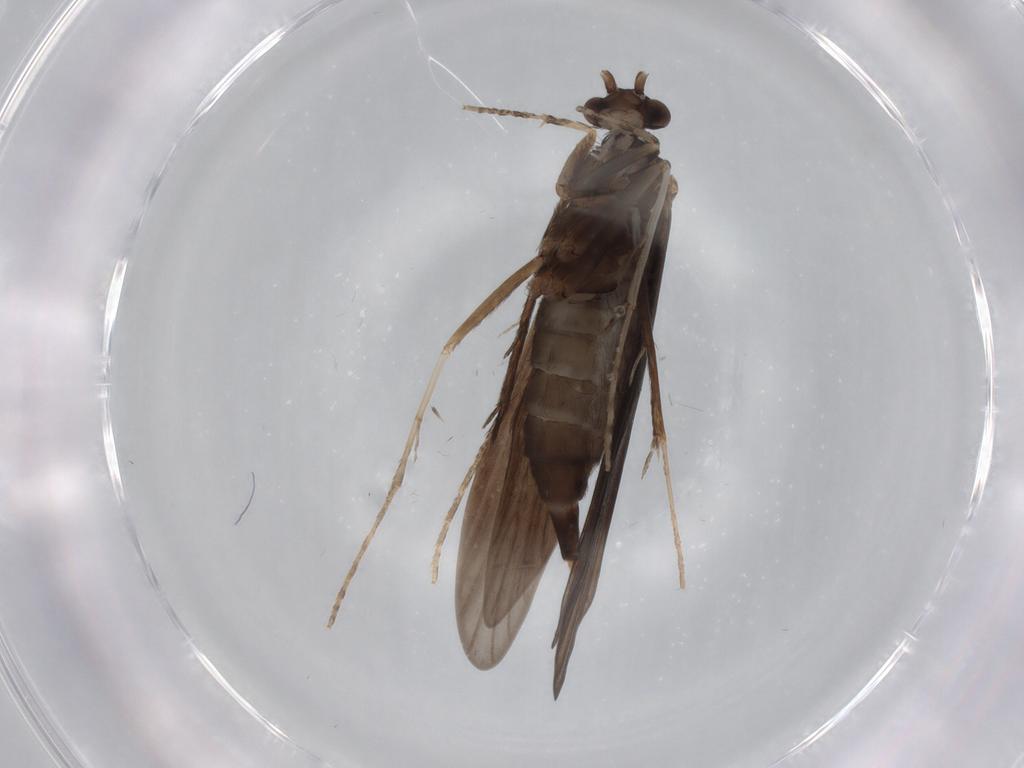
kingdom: Animalia
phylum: Arthropoda
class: Insecta
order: Trichoptera
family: Xiphocentronidae
